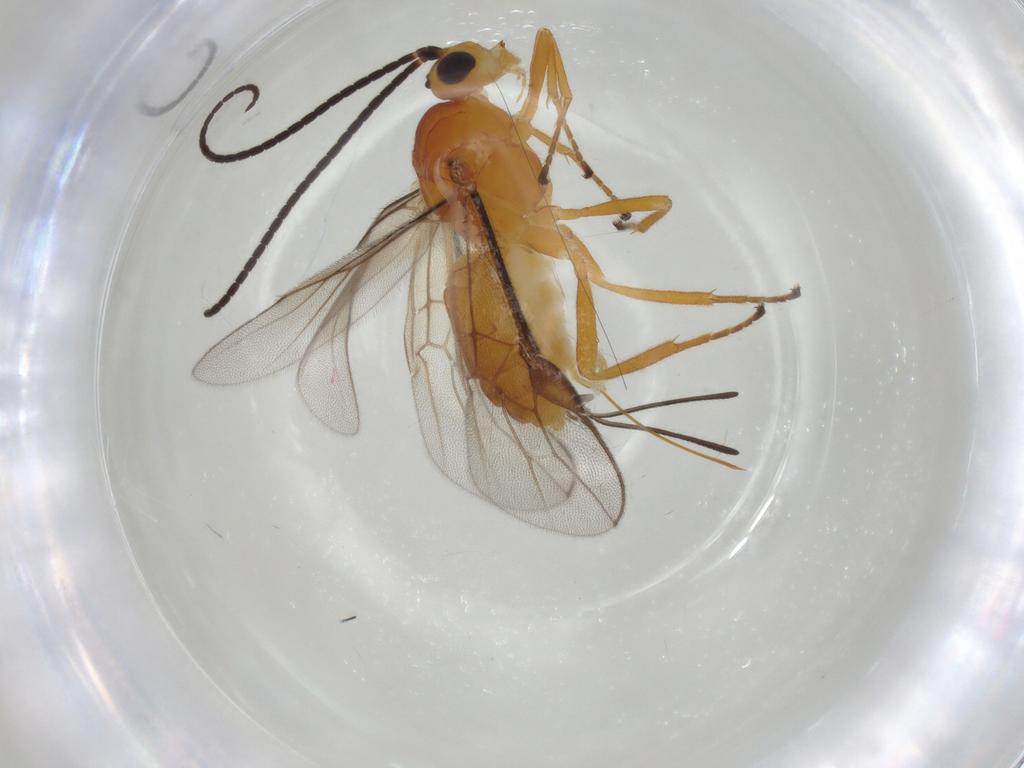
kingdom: Animalia
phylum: Arthropoda
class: Insecta
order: Hymenoptera
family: Braconidae
